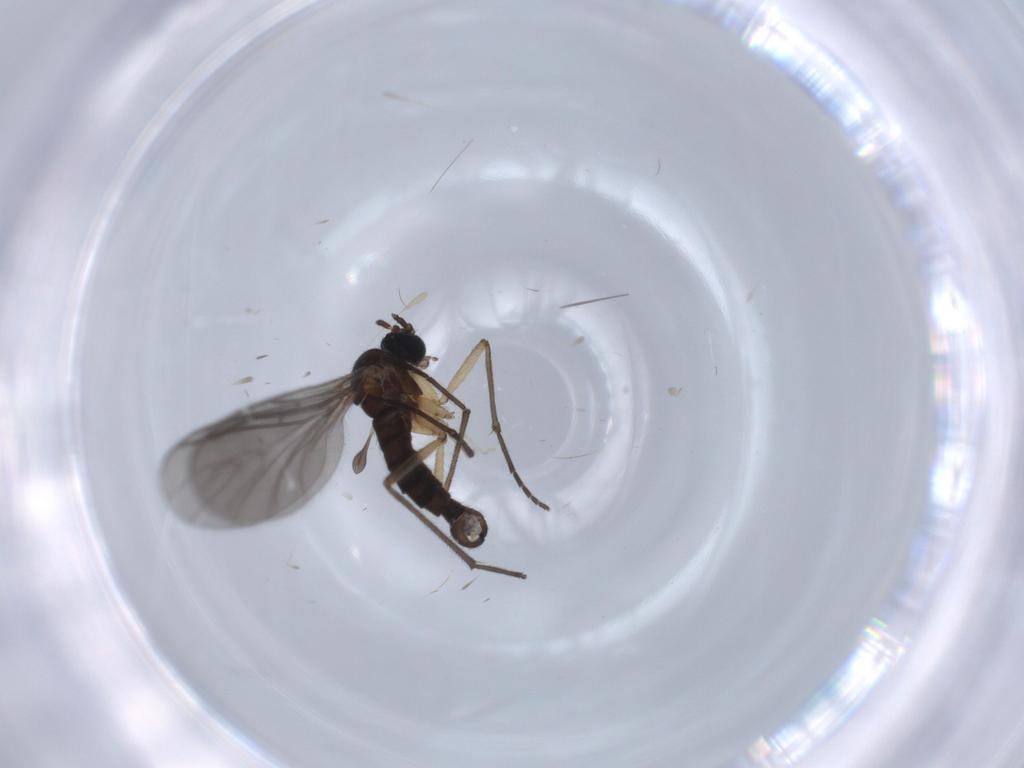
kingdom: Animalia
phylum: Arthropoda
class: Insecta
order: Diptera
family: Sciaridae
